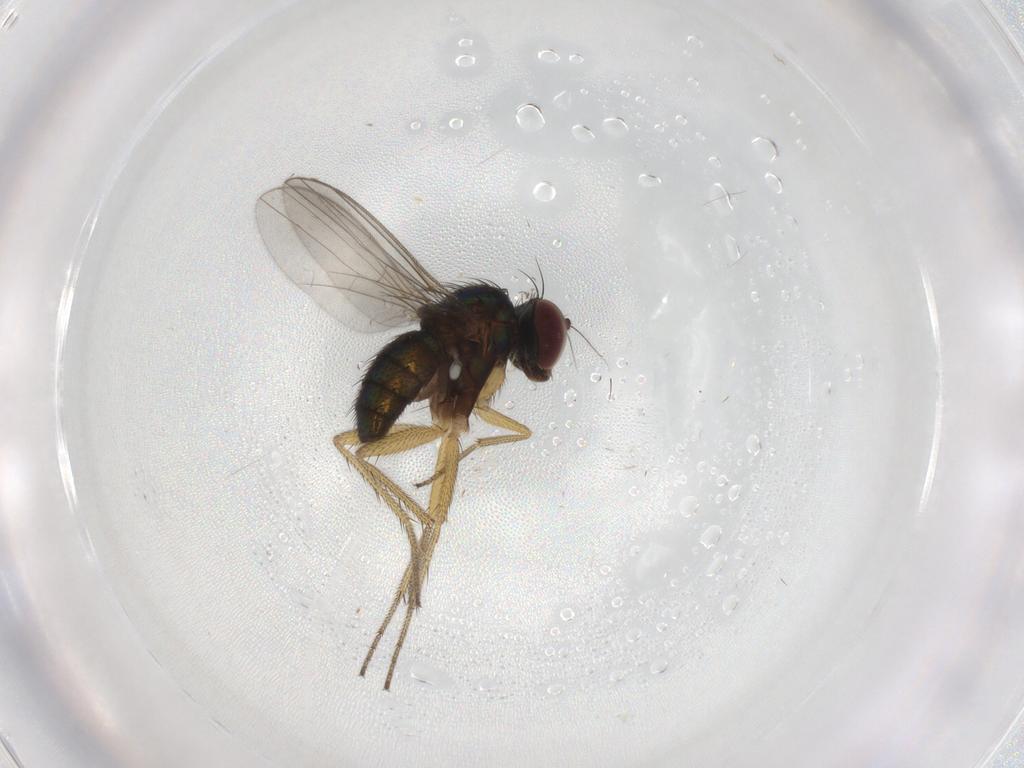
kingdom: Animalia
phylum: Arthropoda
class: Insecta
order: Diptera
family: Dolichopodidae
